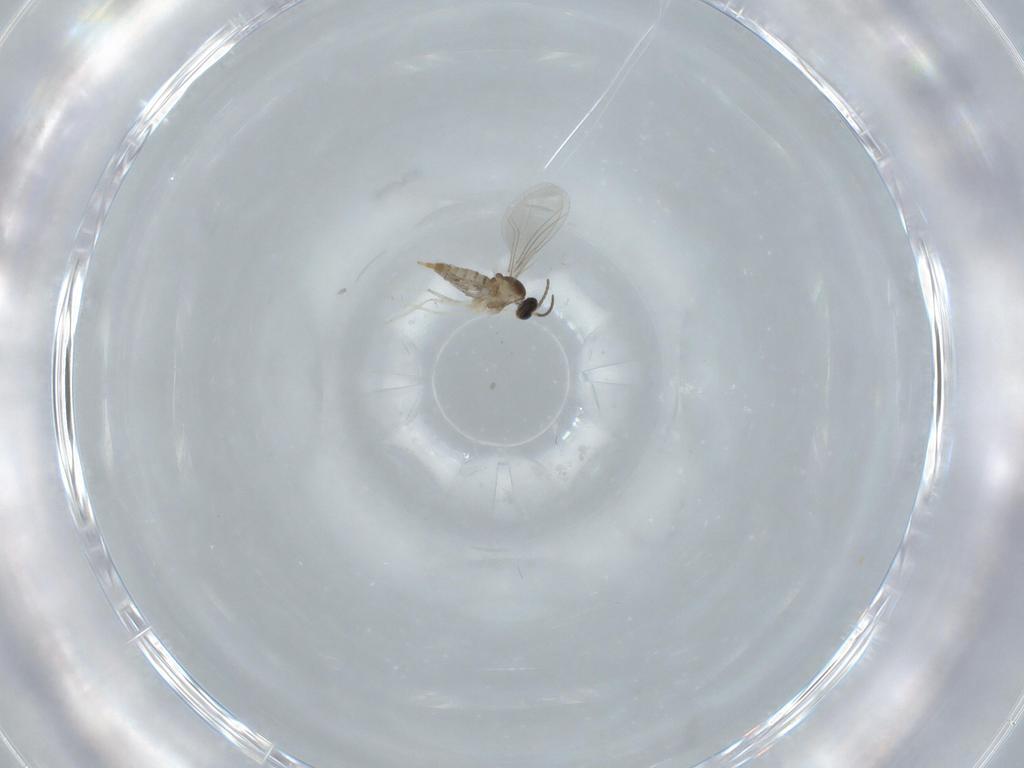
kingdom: Animalia
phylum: Arthropoda
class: Insecta
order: Diptera
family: Cecidomyiidae
